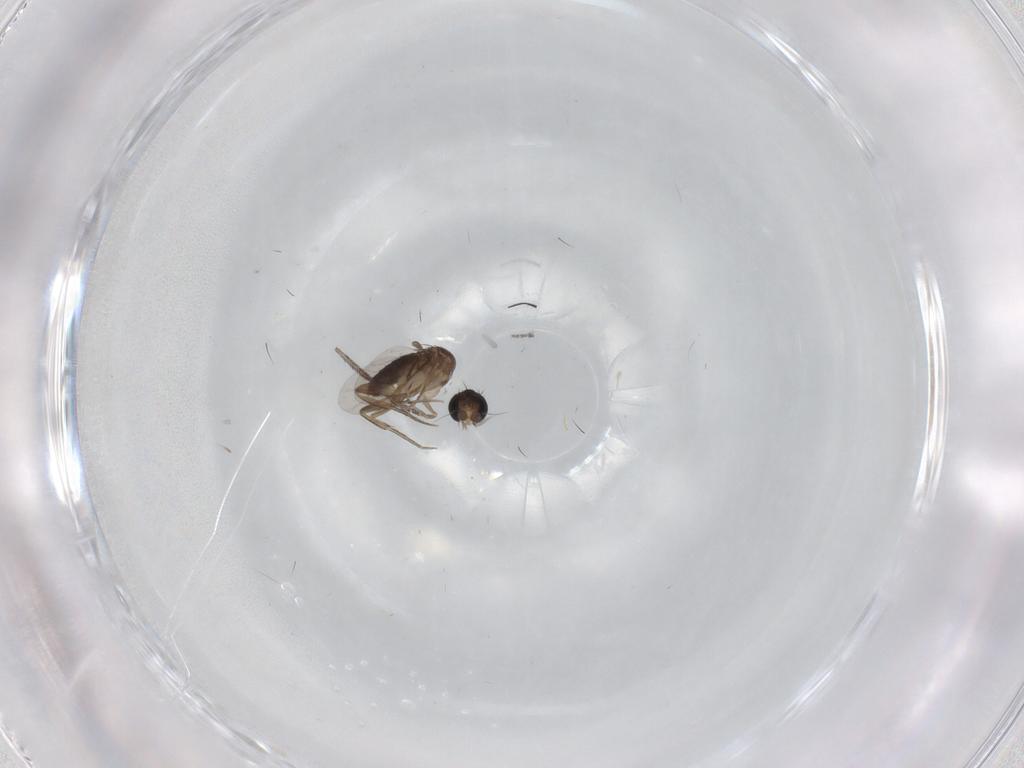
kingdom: Animalia
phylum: Arthropoda
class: Insecta
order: Diptera
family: Phoridae
